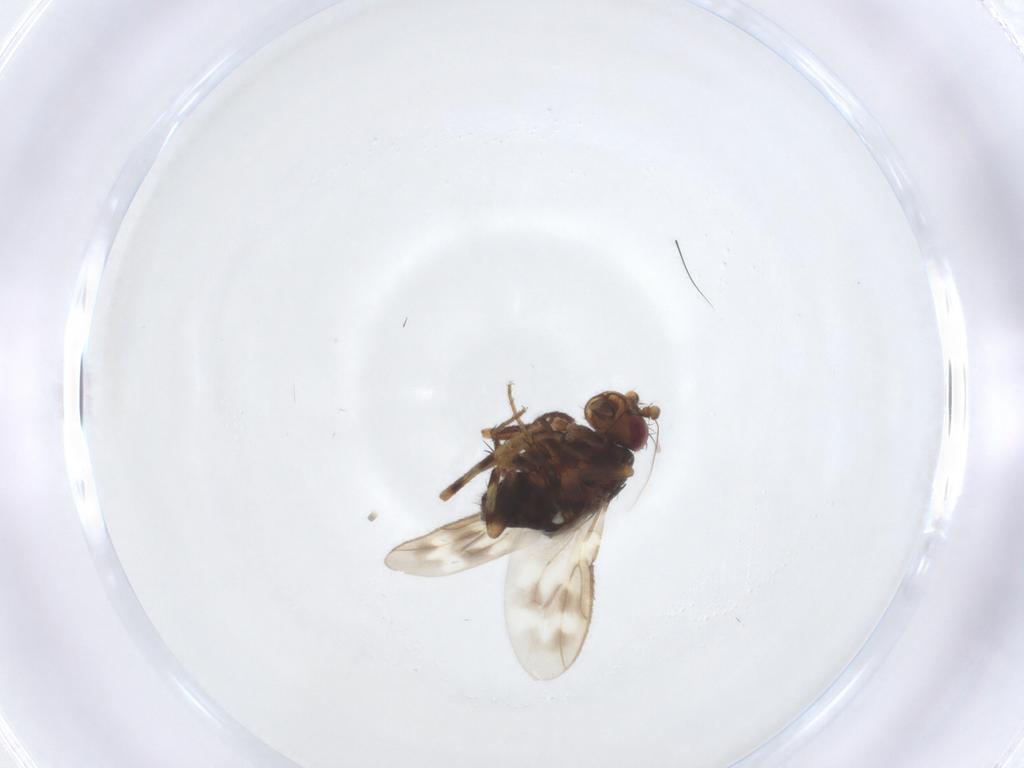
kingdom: Animalia
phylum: Arthropoda
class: Insecta
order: Diptera
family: Sphaeroceridae
